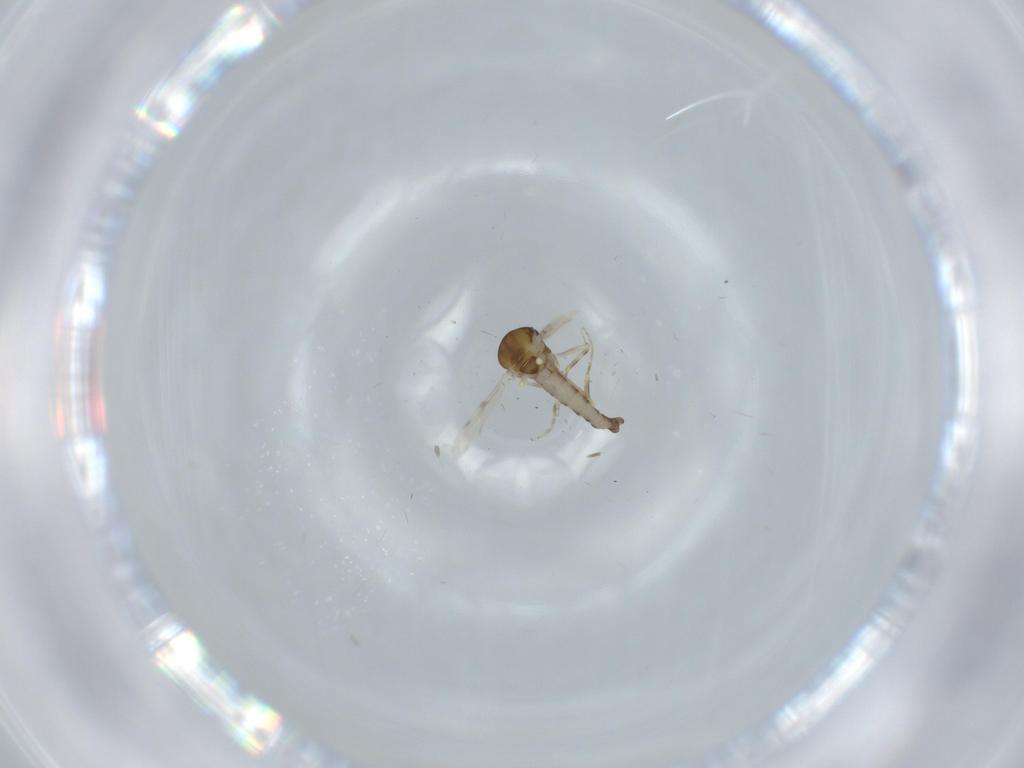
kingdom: Animalia
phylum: Arthropoda
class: Insecta
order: Diptera
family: Ceratopogonidae
